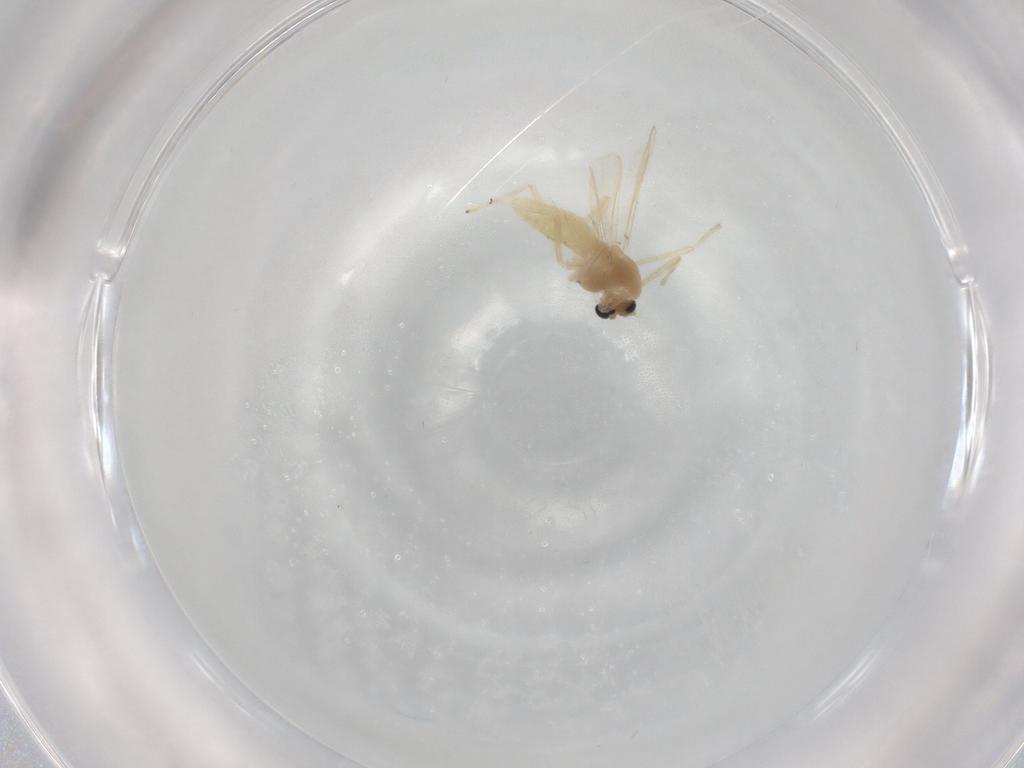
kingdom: Animalia
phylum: Arthropoda
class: Insecta
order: Diptera
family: Chironomidae
